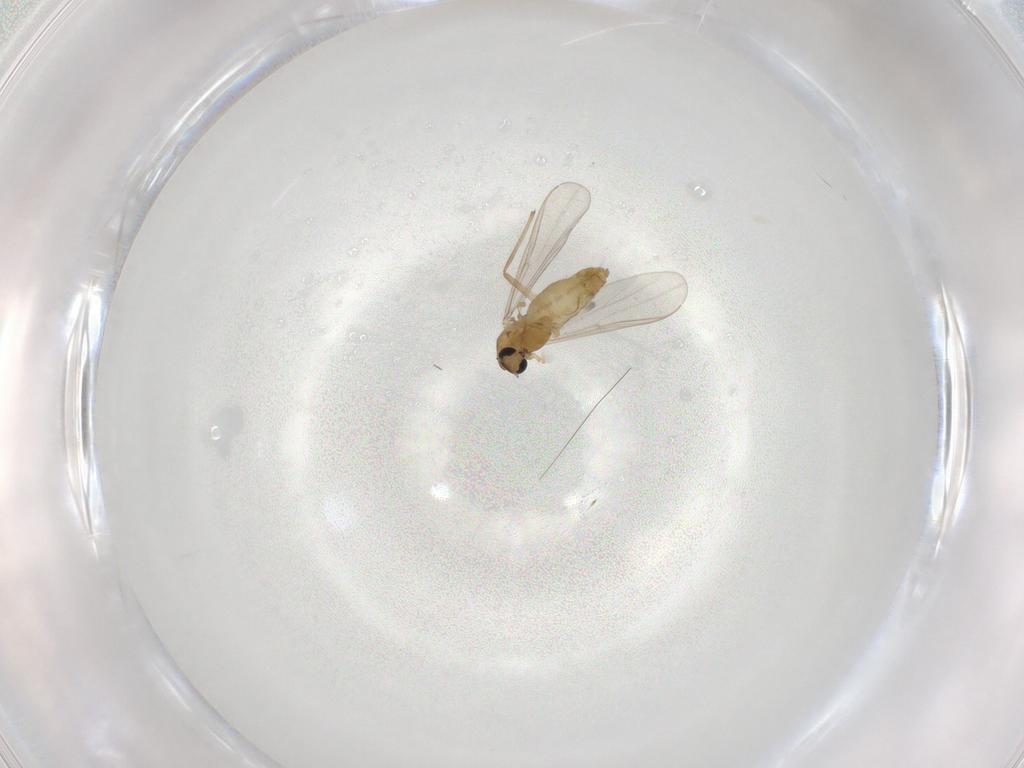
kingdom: Animalia
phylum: Arthropoda
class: Insecta
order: Diptera
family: Chironomidae
